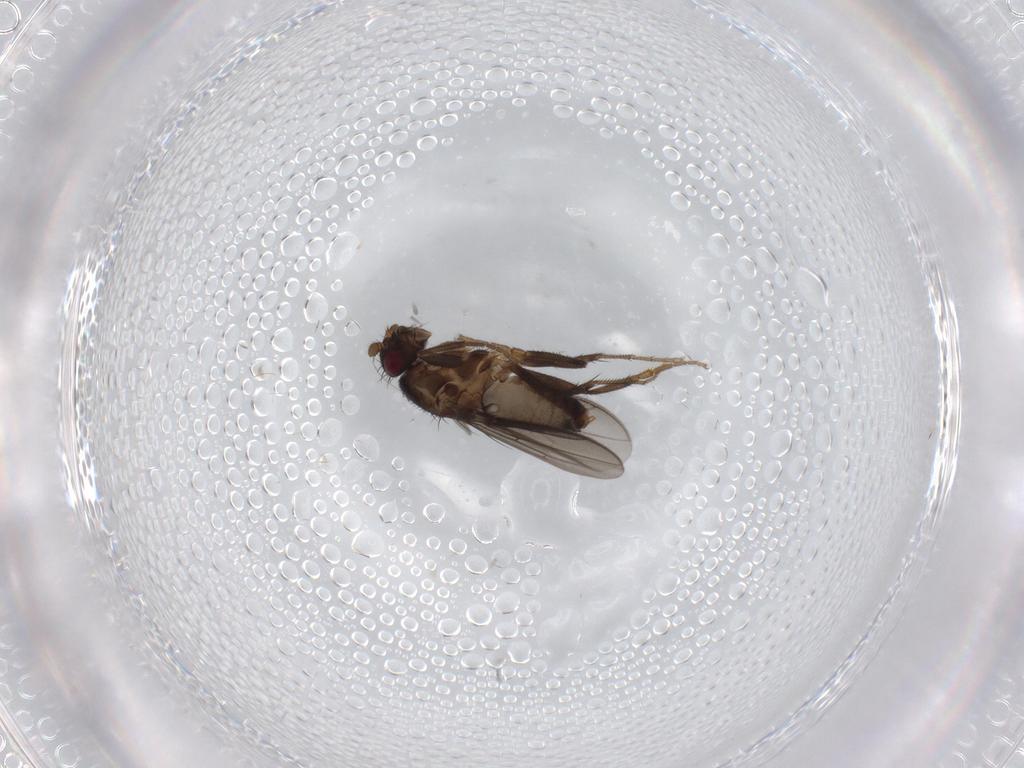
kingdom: Animalia
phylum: Arthropoda
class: Insecta
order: Diptera
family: Sphaeroceridae
